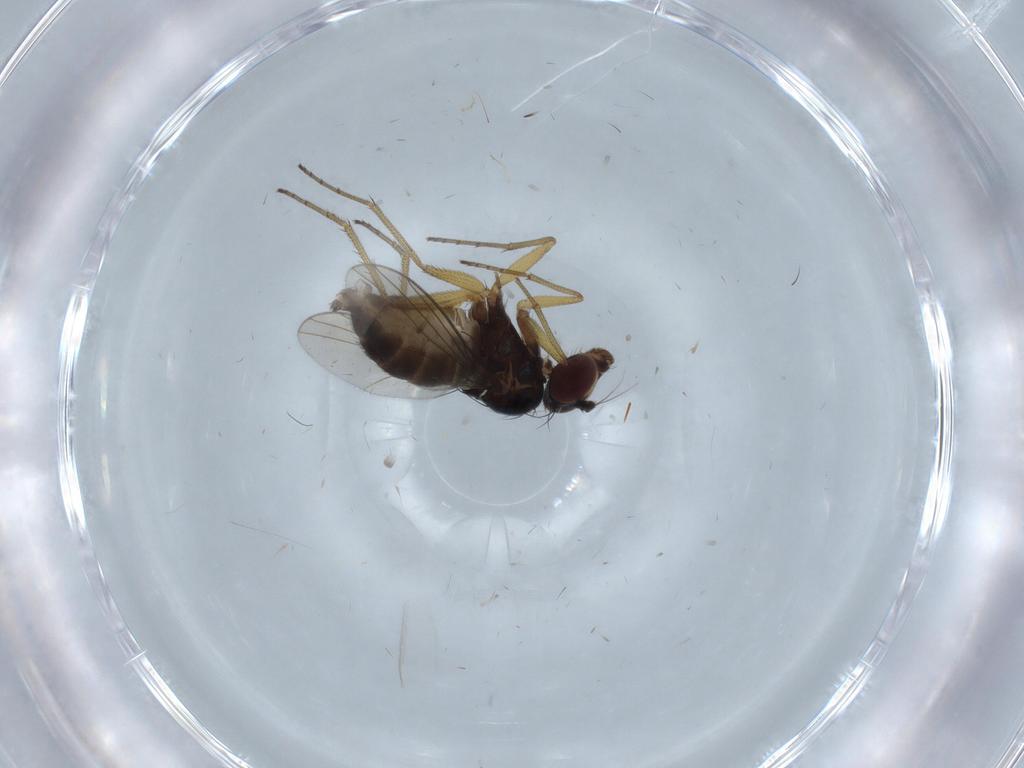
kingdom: Animalia
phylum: Arthropoda
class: Insecta
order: Diptera
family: Dolichopodidae
